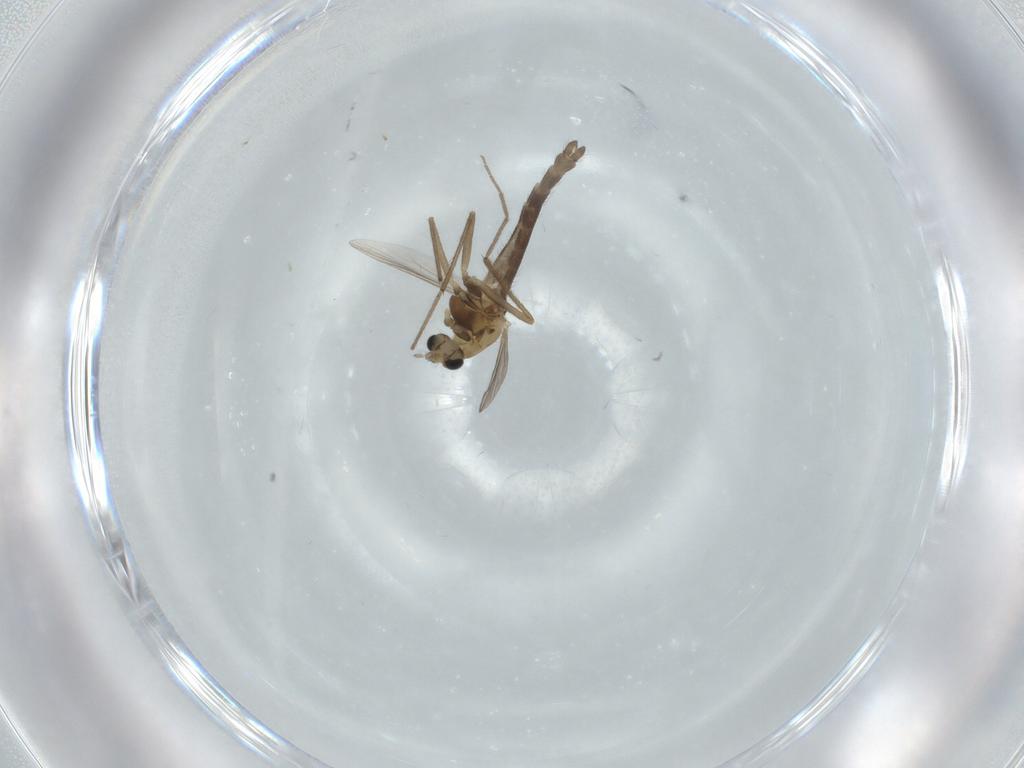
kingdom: Animalia
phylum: Arthropoda
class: Insecta
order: Diptera
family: Chironomidae
